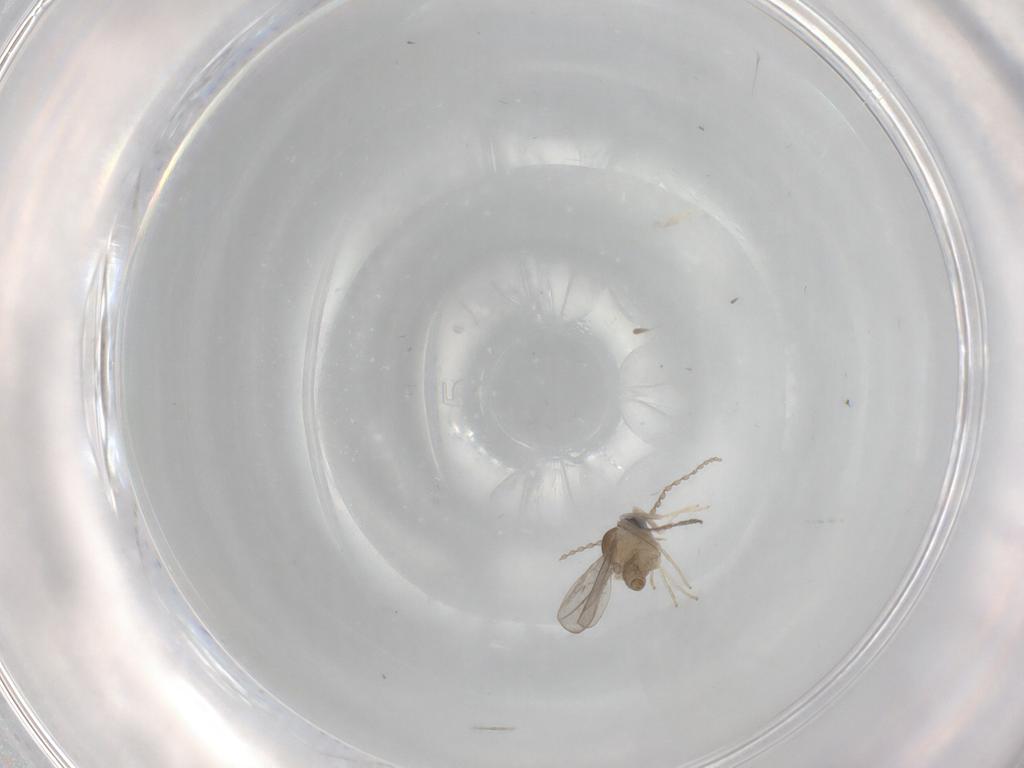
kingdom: Animalia
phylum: Arthropoda
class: Insecta
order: Diptera
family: Psychodidae
